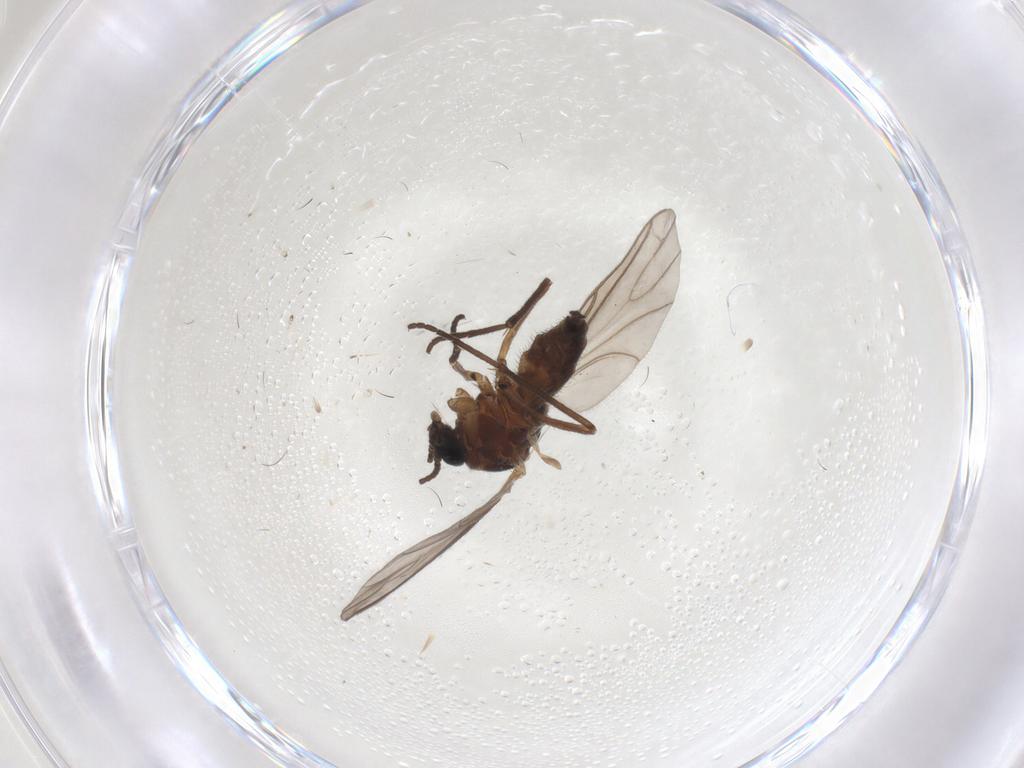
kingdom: Animalia
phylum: Arthropoda
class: Insecta
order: Diptera
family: Sciaridae
